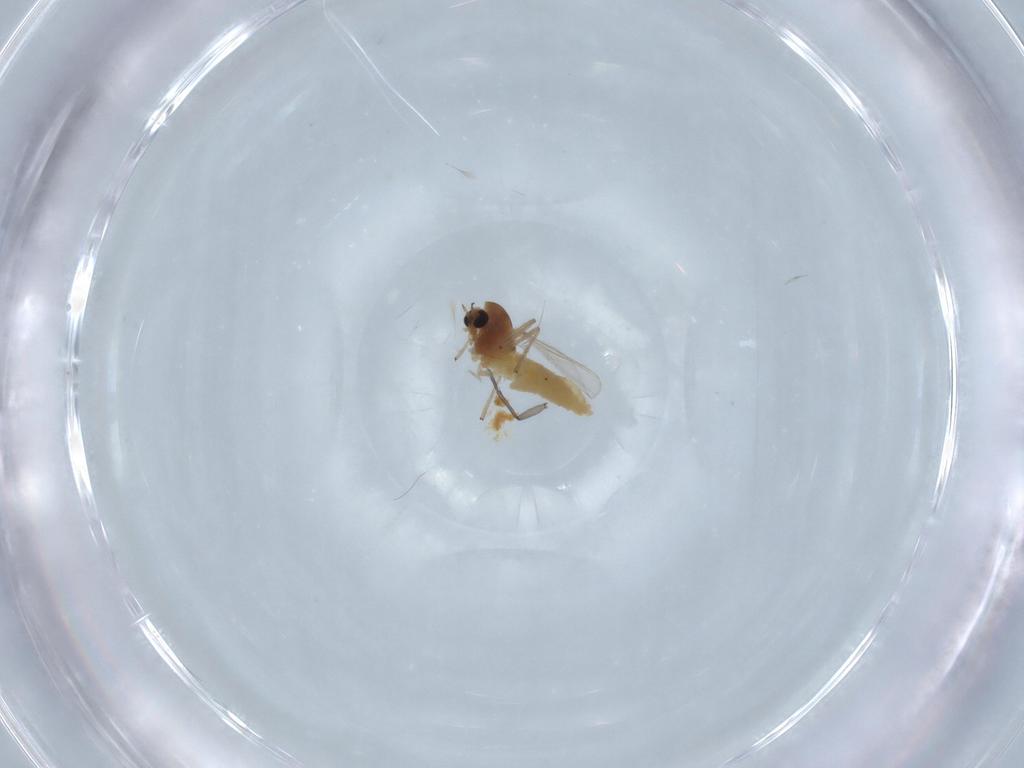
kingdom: Animalia
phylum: Arthropoda
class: Insecta
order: Diptera
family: Chironomidae
